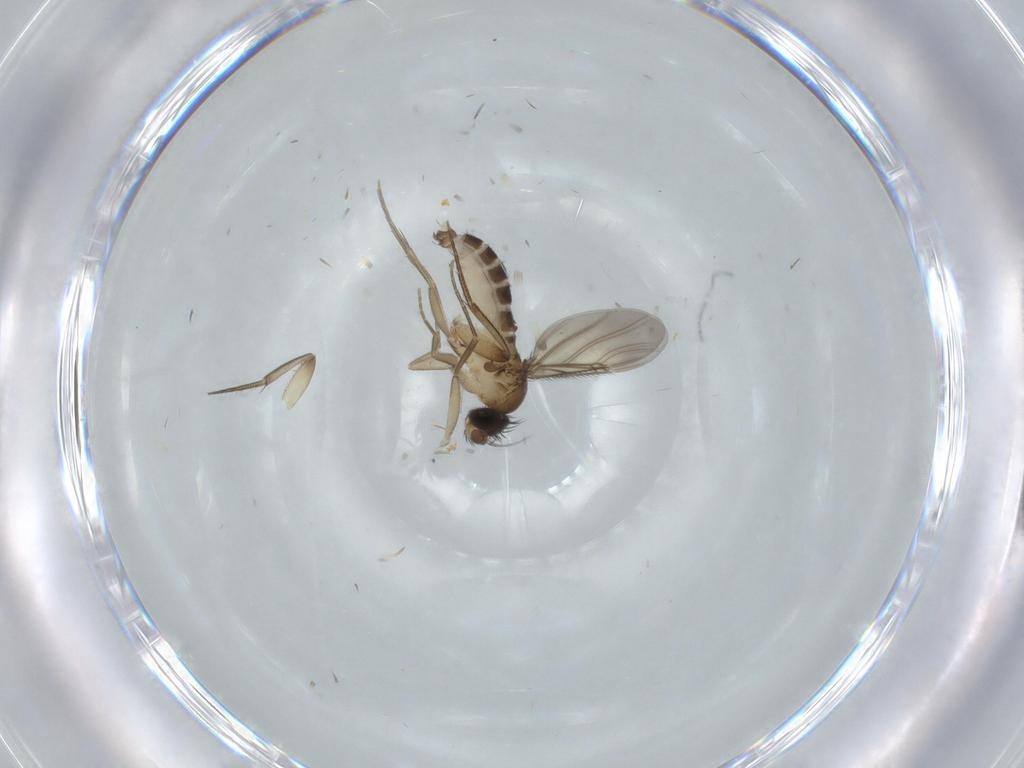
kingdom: Animalia
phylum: Arthropoda
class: Insecta
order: Diptera
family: Phoridae
